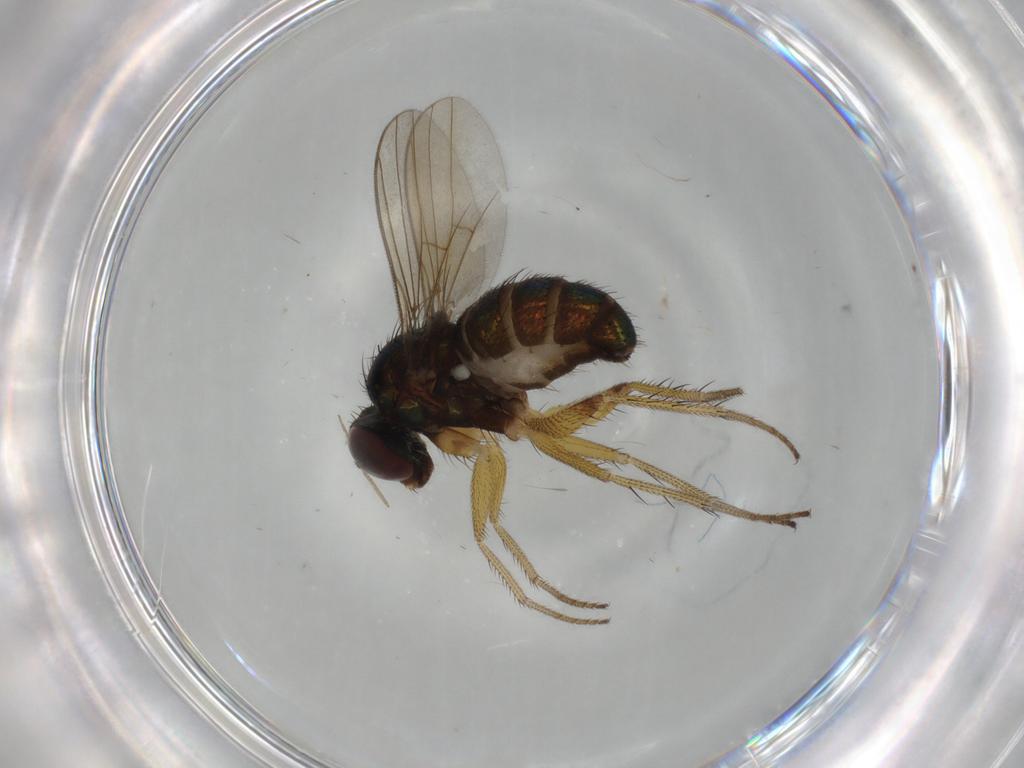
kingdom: Animalia
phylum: Arthropoda
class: Insecta
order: Diptera
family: Dolichopodidae
